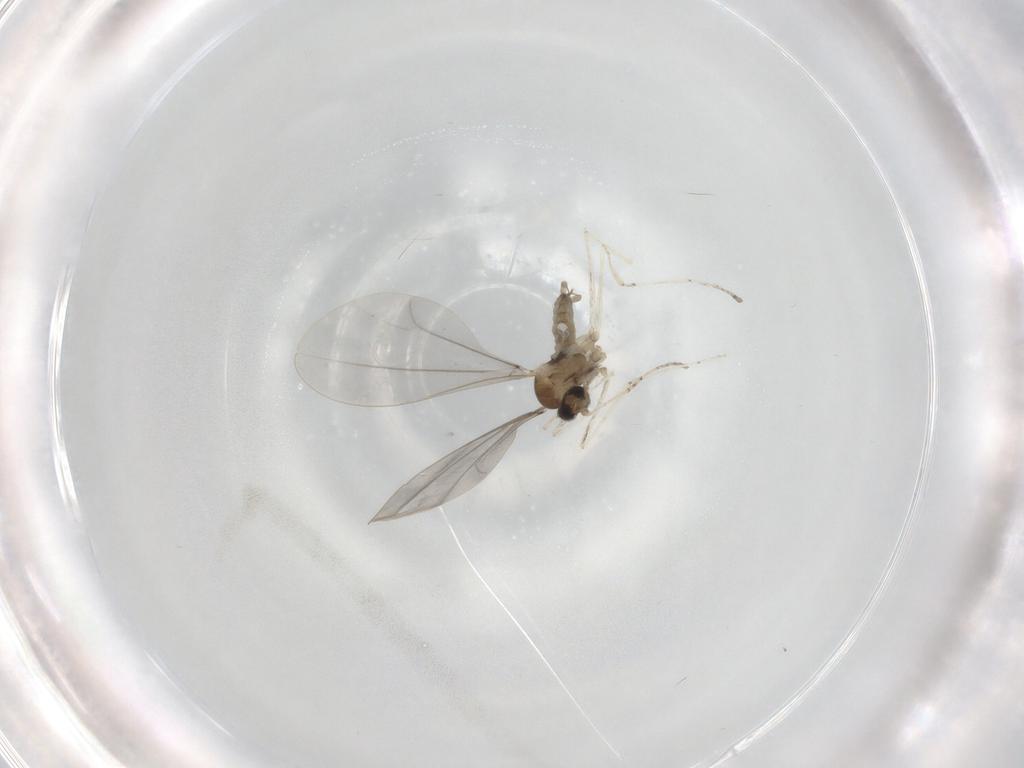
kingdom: Animalia
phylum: Arthropoda
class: Insecta
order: Diptera
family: Cecidomyiidae
